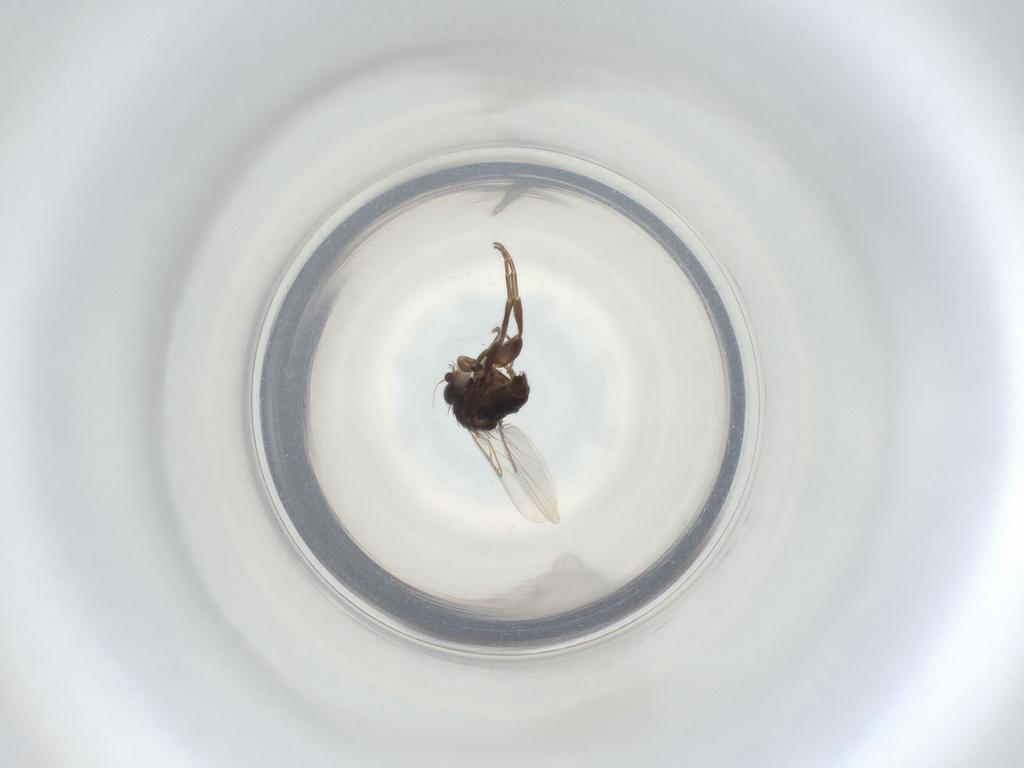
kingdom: Animalia
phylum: Arthropoda
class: Insecta
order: Diptera
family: Phoridae
